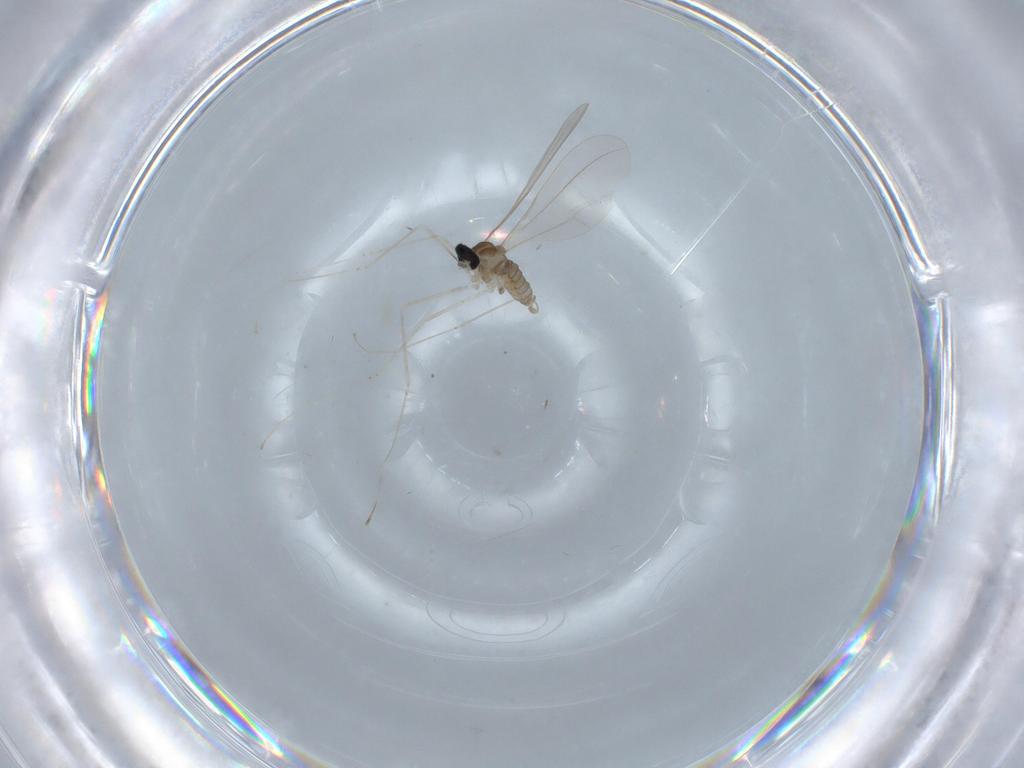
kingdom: Animalia
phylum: Arthropoda
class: Insecta
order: Diptera
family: Cecidomyiidae
